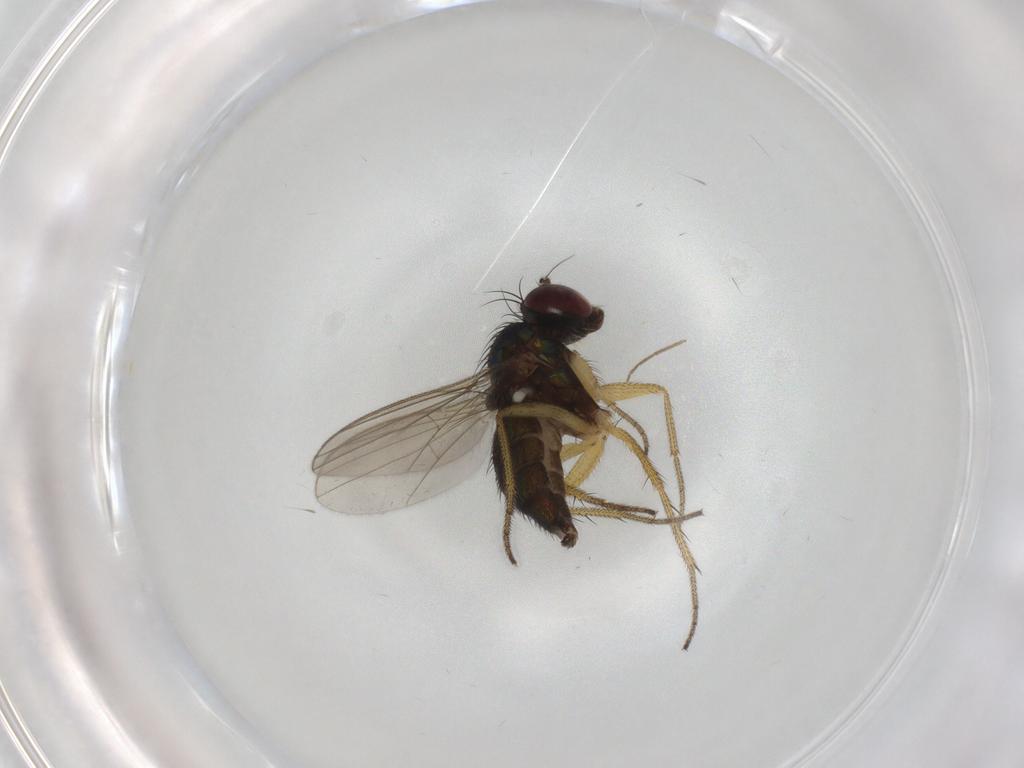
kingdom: Animalia
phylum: Arthropoda
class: Insecta
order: Diptera
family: Dolichopodidae
